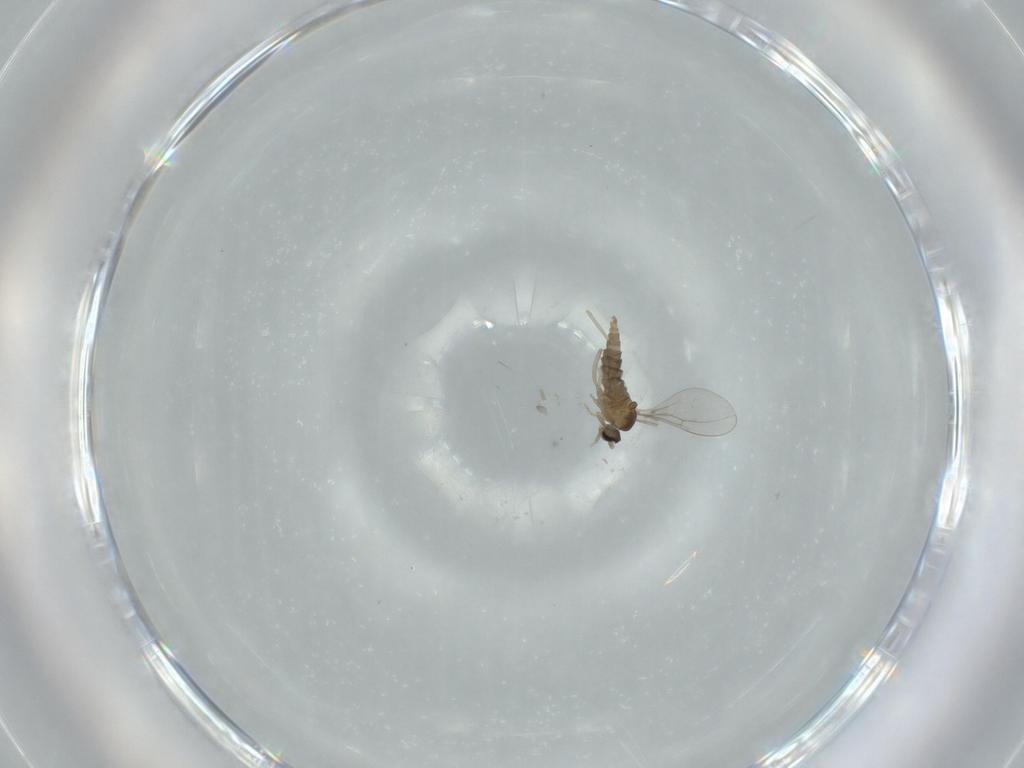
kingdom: Animalia
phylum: Arthropoda
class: Insecta
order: Diptera
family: Cecidomyiidae
